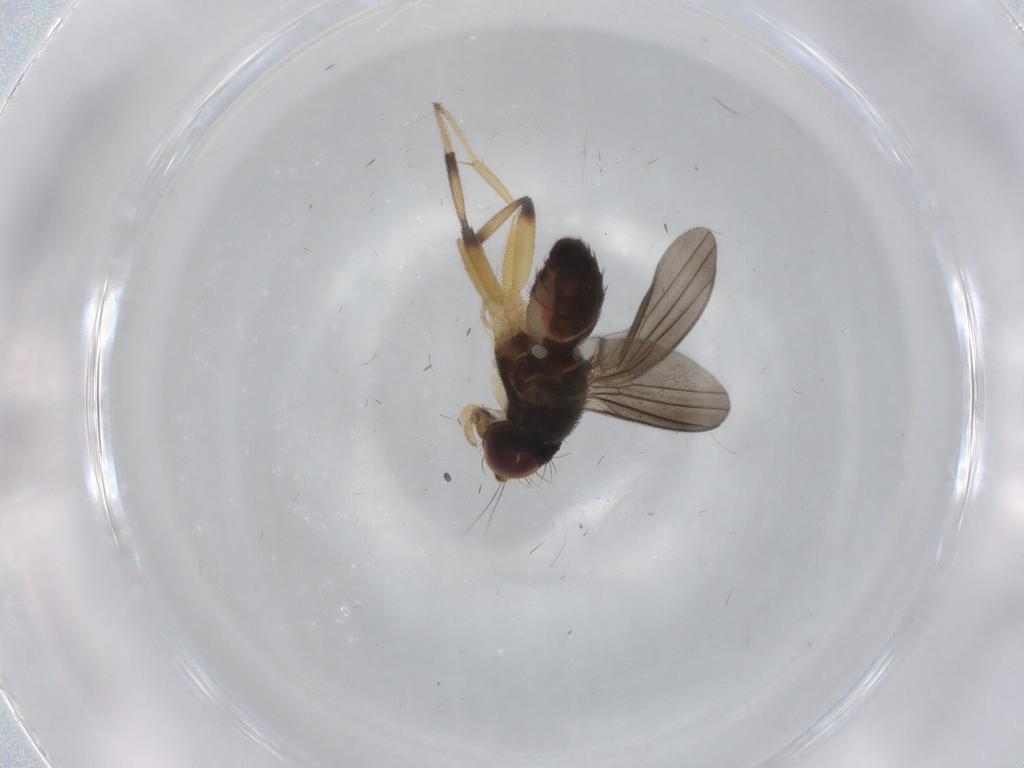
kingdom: Animalia
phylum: Arthropoda
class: Insecta
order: Diptera
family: Clusiidae
